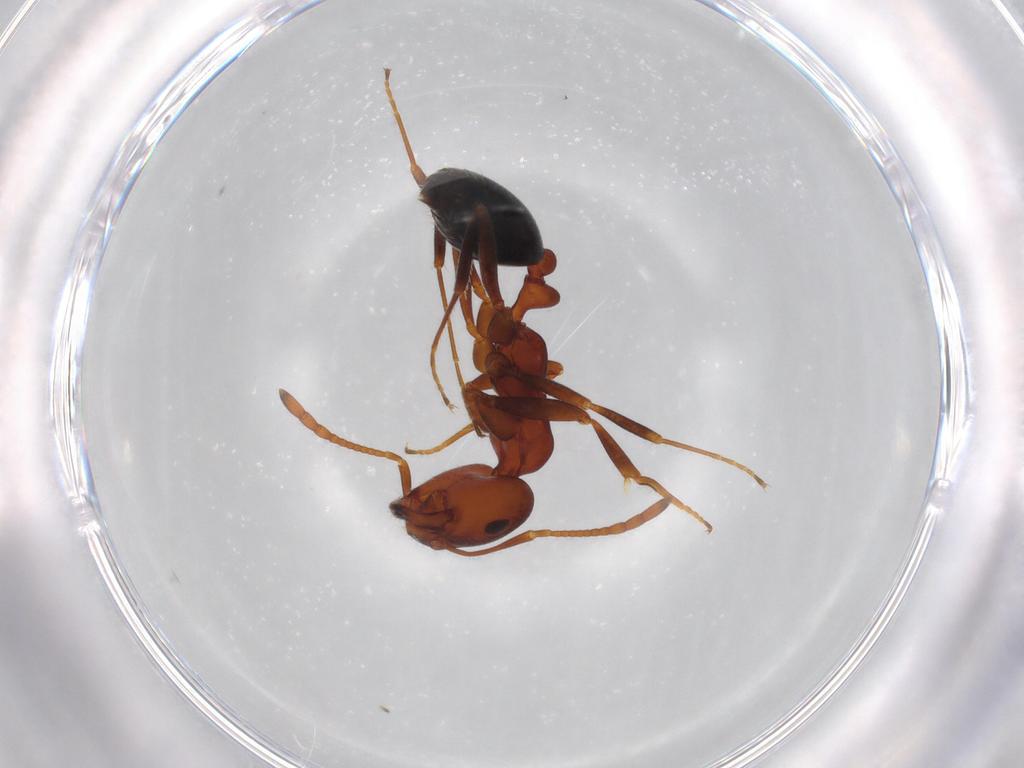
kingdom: Animalia
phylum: Arthropoda
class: Insecta
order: Hymenoptera
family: Formicidae
